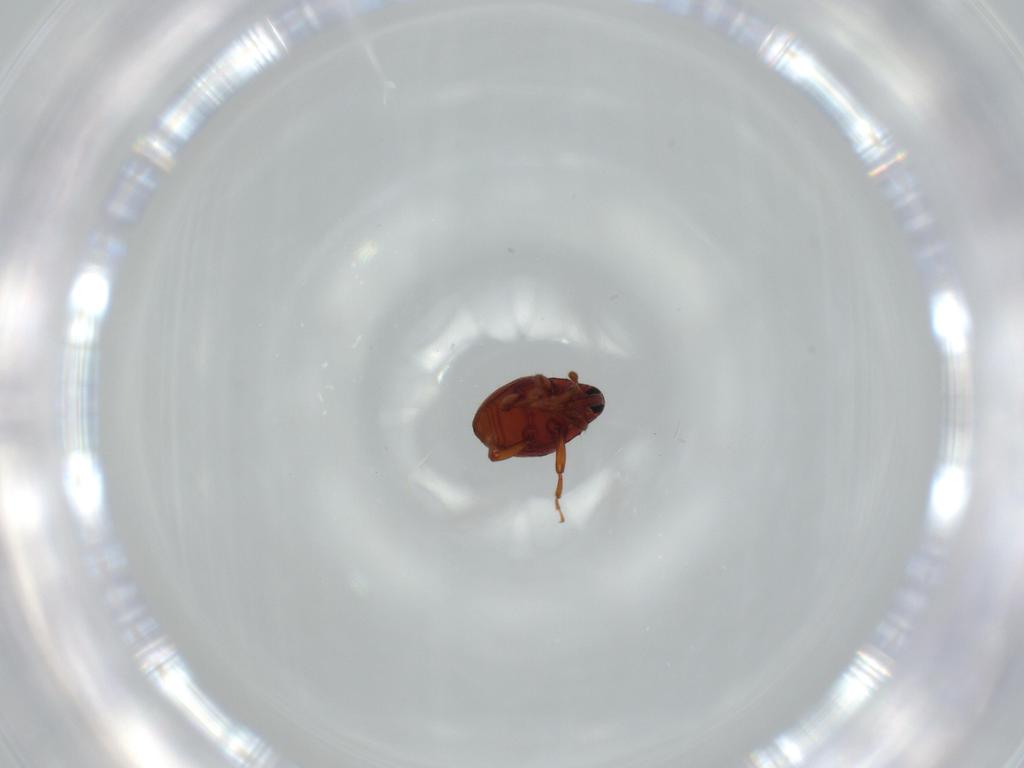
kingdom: Animalia
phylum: Arthropoda
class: Insecta
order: Coleoptera
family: Curculionidae
